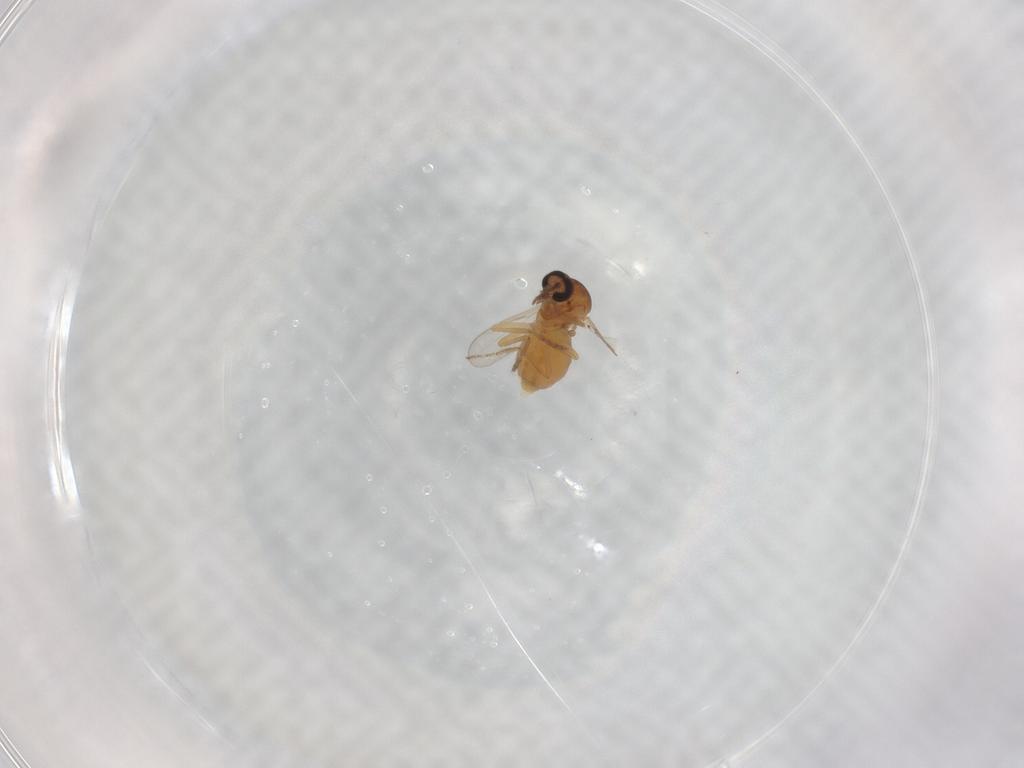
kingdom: Animalia
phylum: Arthropoda
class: Insecta
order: Diptera
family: Ceratopogonidae
